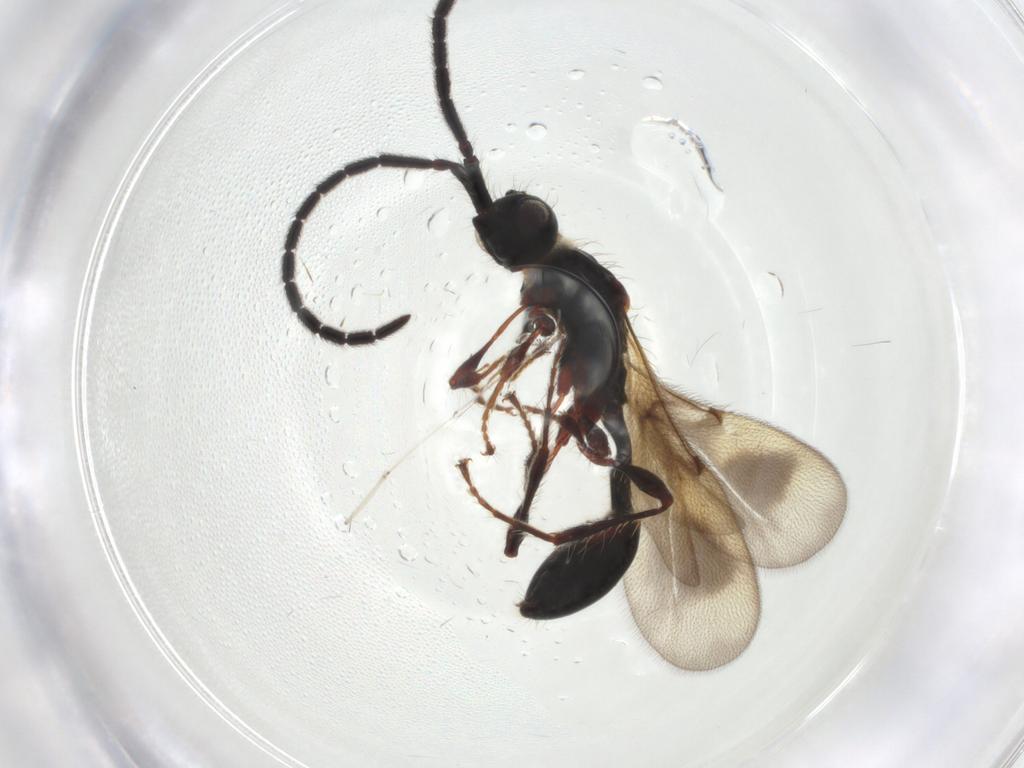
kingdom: Animalia
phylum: Arthropoda
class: Insecta
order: Hymenoptera
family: Diapriidae
